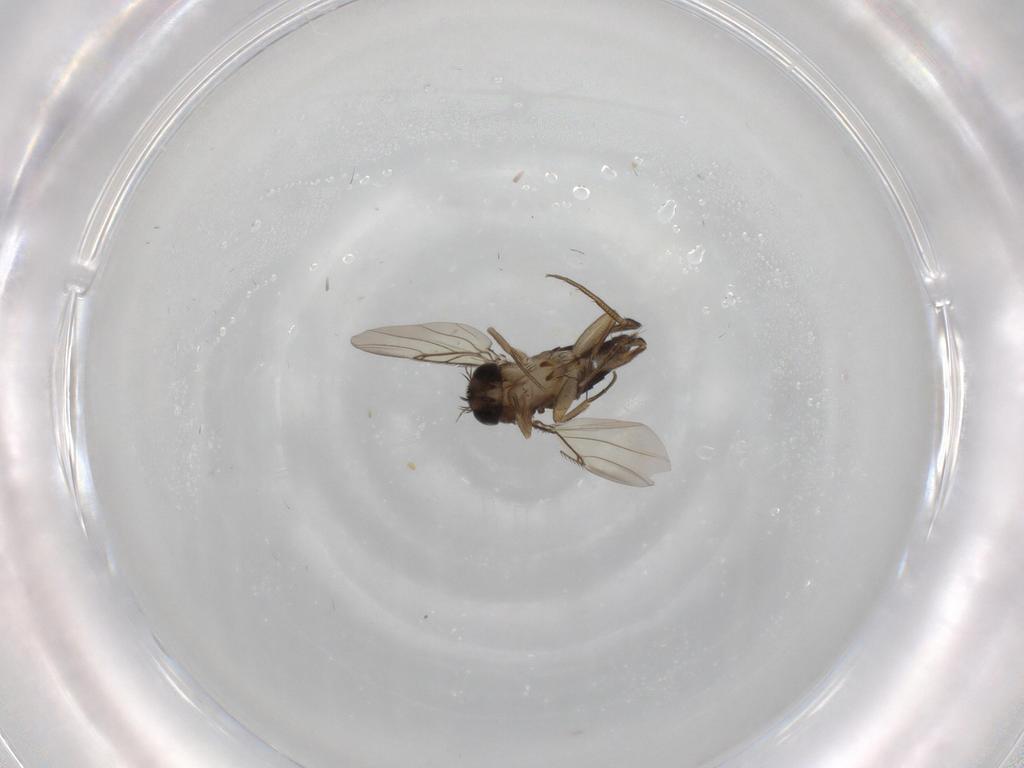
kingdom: Animalia
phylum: Arthropoda
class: Insecta
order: Diptera
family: Phoridae
